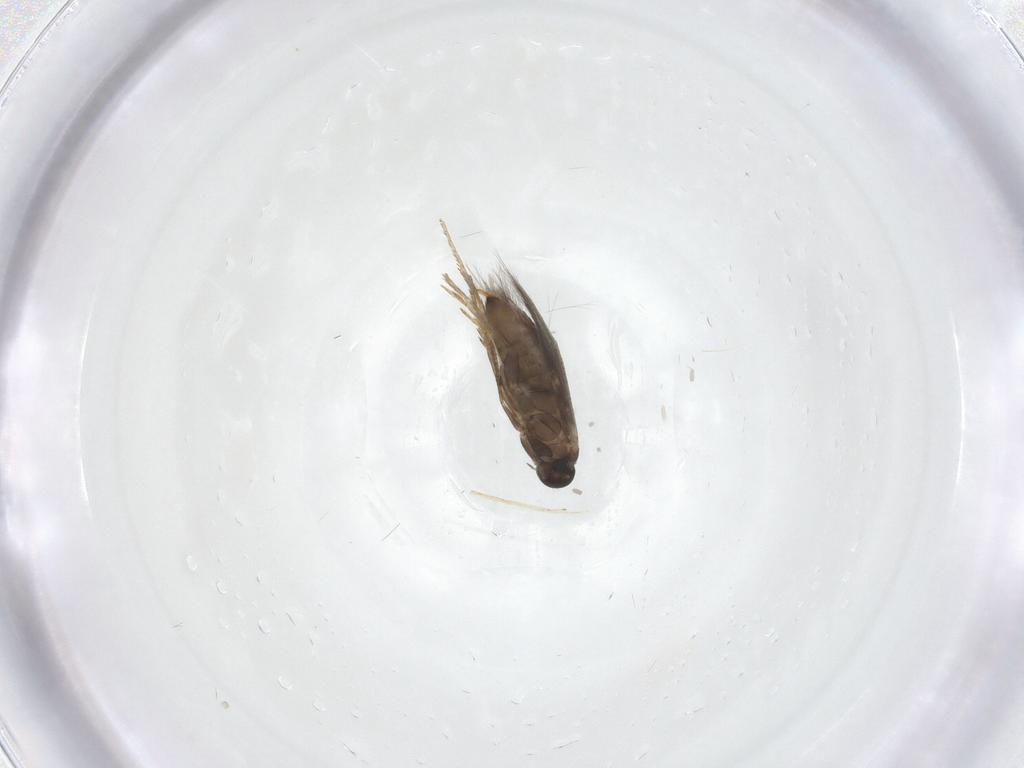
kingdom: Animalia
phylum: Arthropoda
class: Insecta
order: Lepidoptera
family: Heliozelidae
